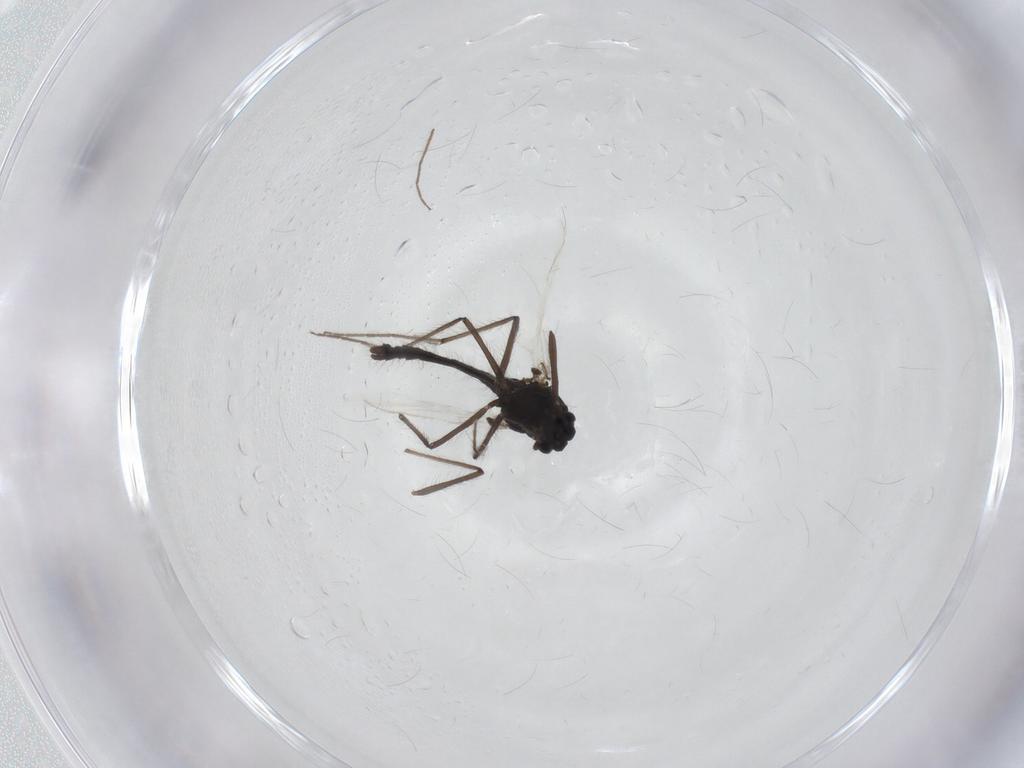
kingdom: Animalia
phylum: Arthropoda
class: Insecta
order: Diptera
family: Chironomidae
